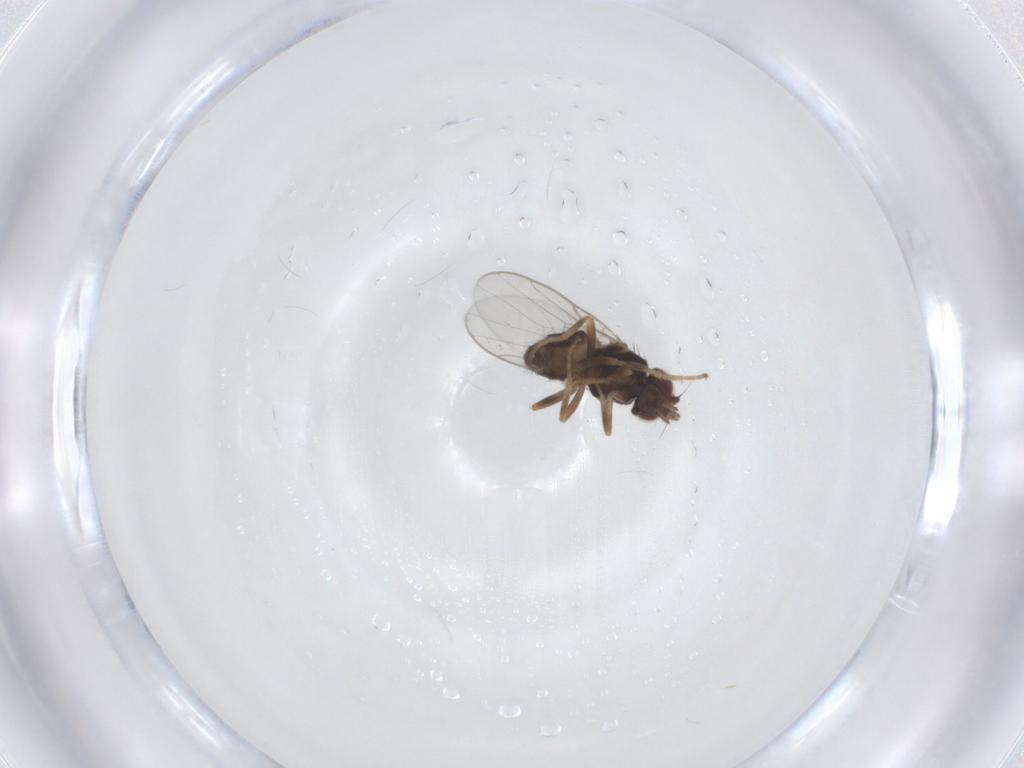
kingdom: Animalia
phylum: Arthropoda
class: Insecta
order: Diptera
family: Chloropidae
